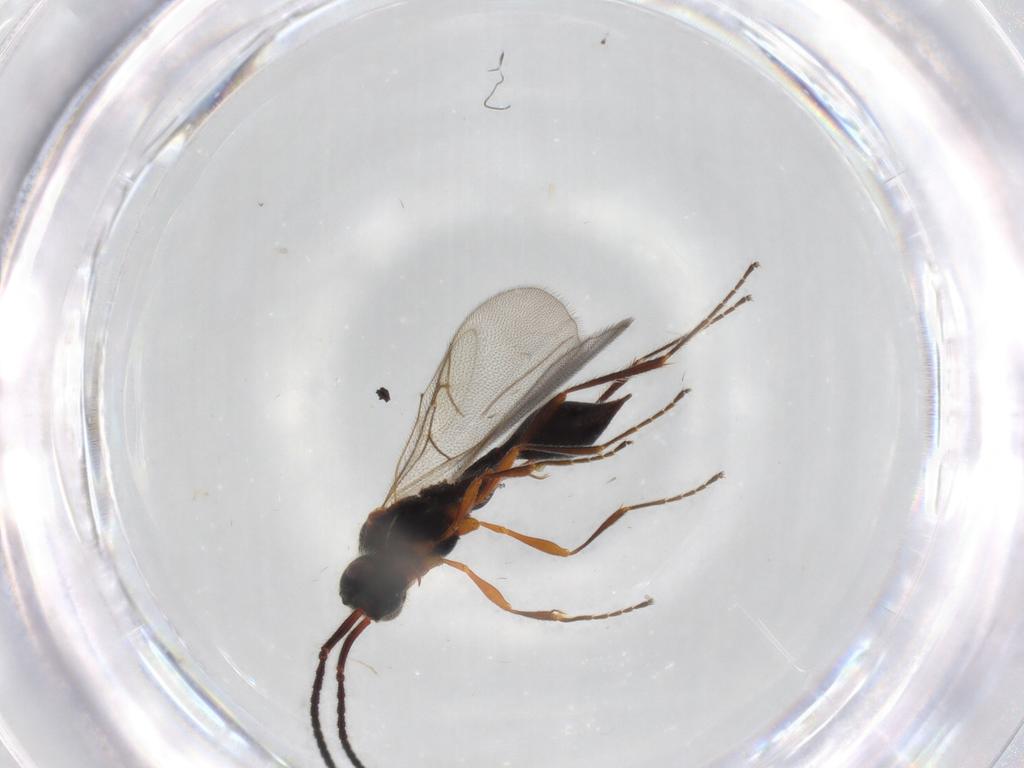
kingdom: Animalia
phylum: Arthropoda
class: Insecta
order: Hymenoptera
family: Diapriidae
